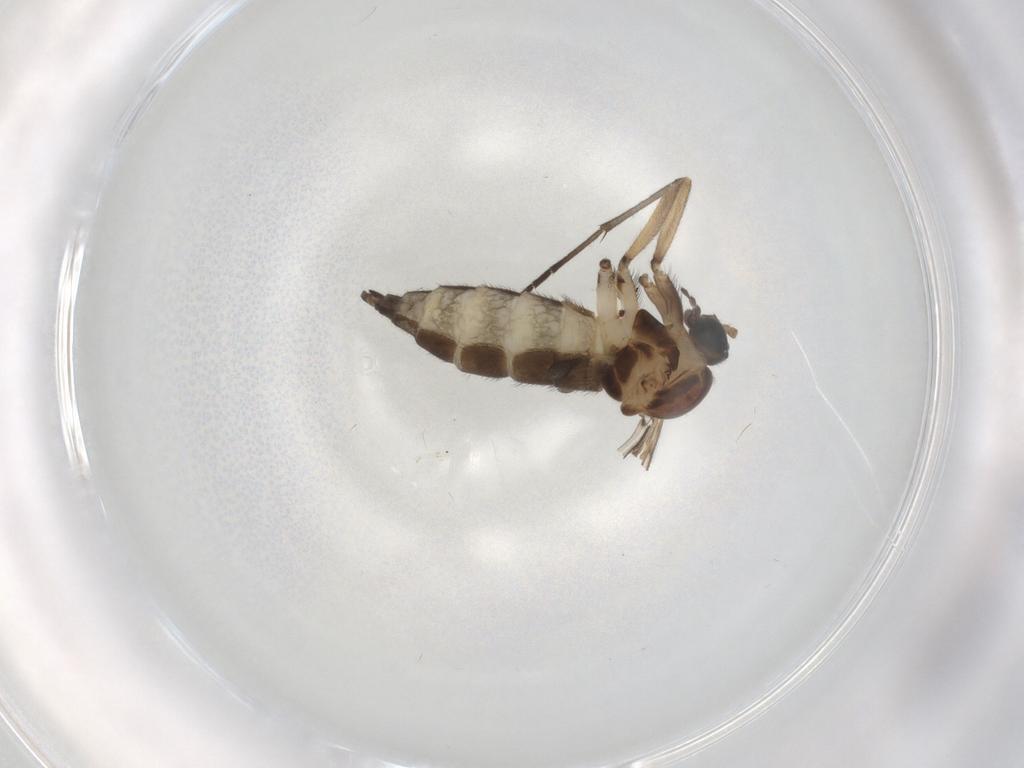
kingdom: Animalia
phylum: Arthropoda
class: Insecta
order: Diptera
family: Sciaridae
